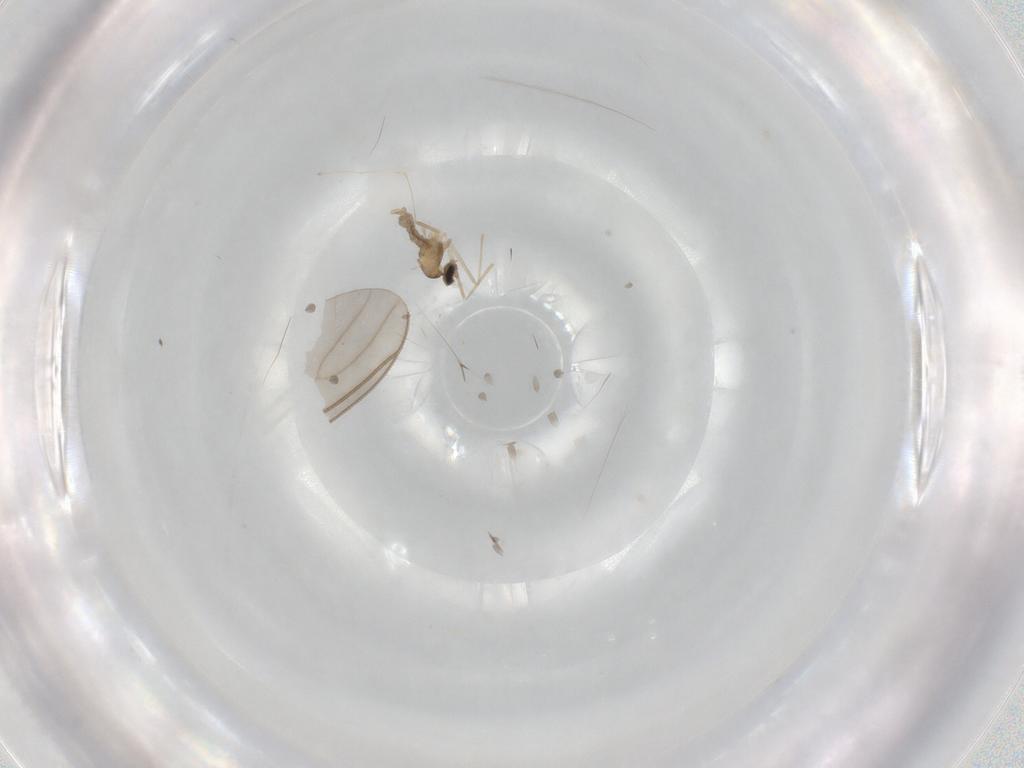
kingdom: Animalia
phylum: Arthropoda
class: Insecta
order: Diptera
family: Cecidomyiidae
